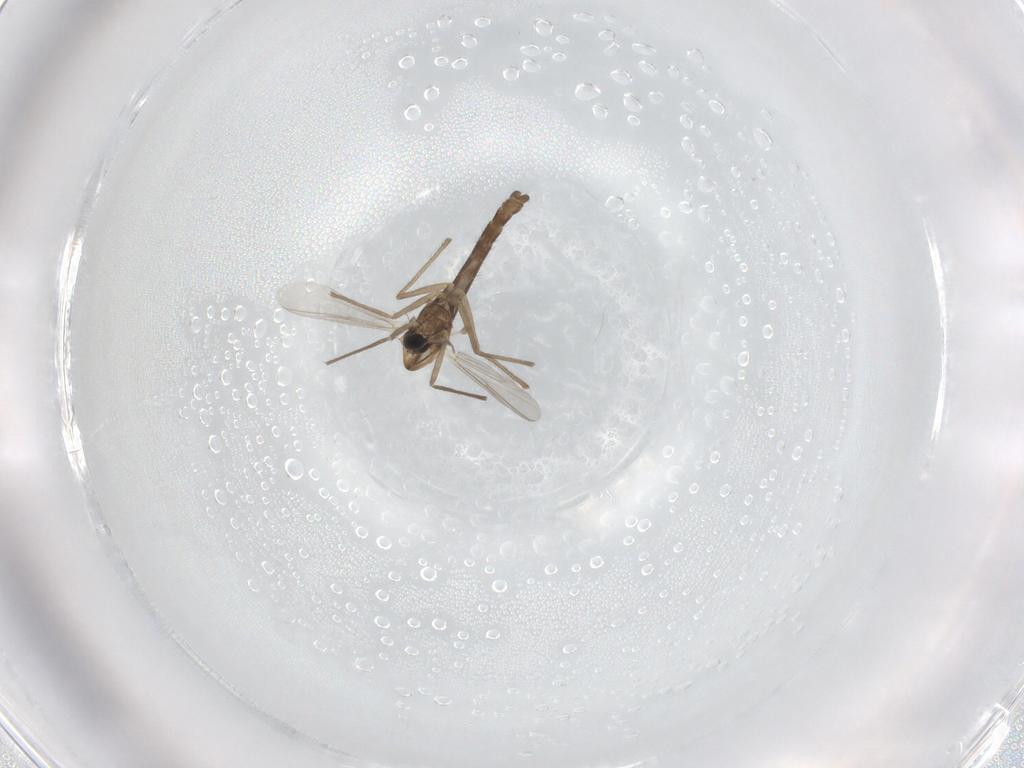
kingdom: Animalia
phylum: Arthropoda
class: Insecta
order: Diptera
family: Chironomidae
